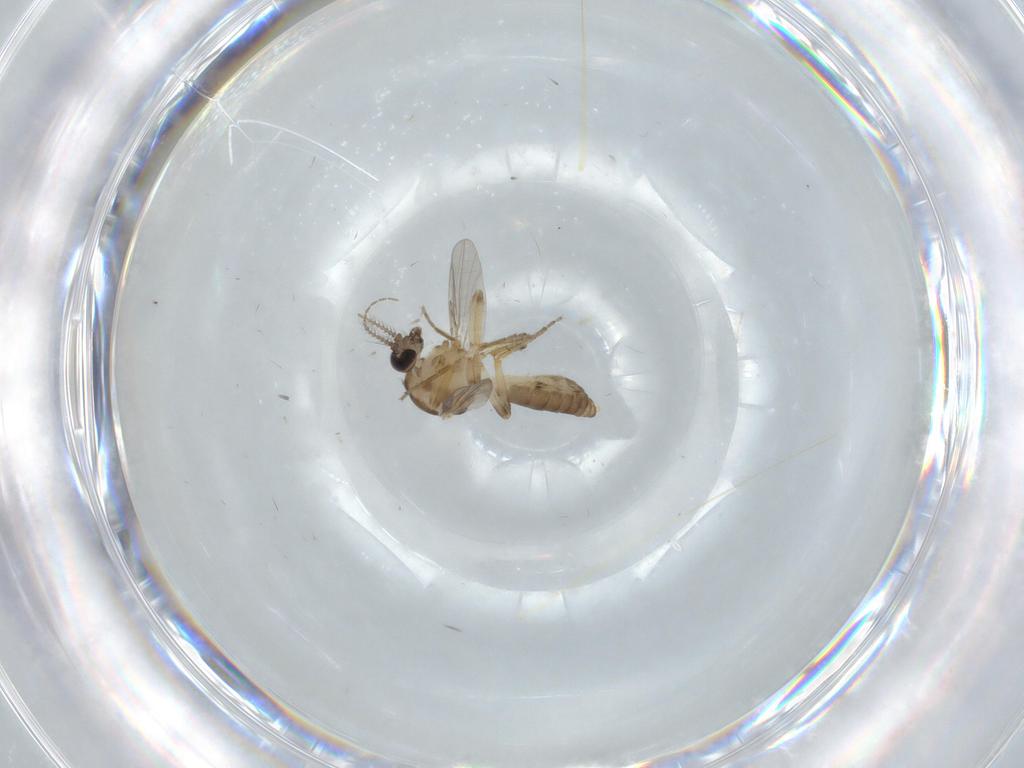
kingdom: Animalia
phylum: Arthropoda
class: Insecta
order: Diptera
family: Ceratopogonidae
